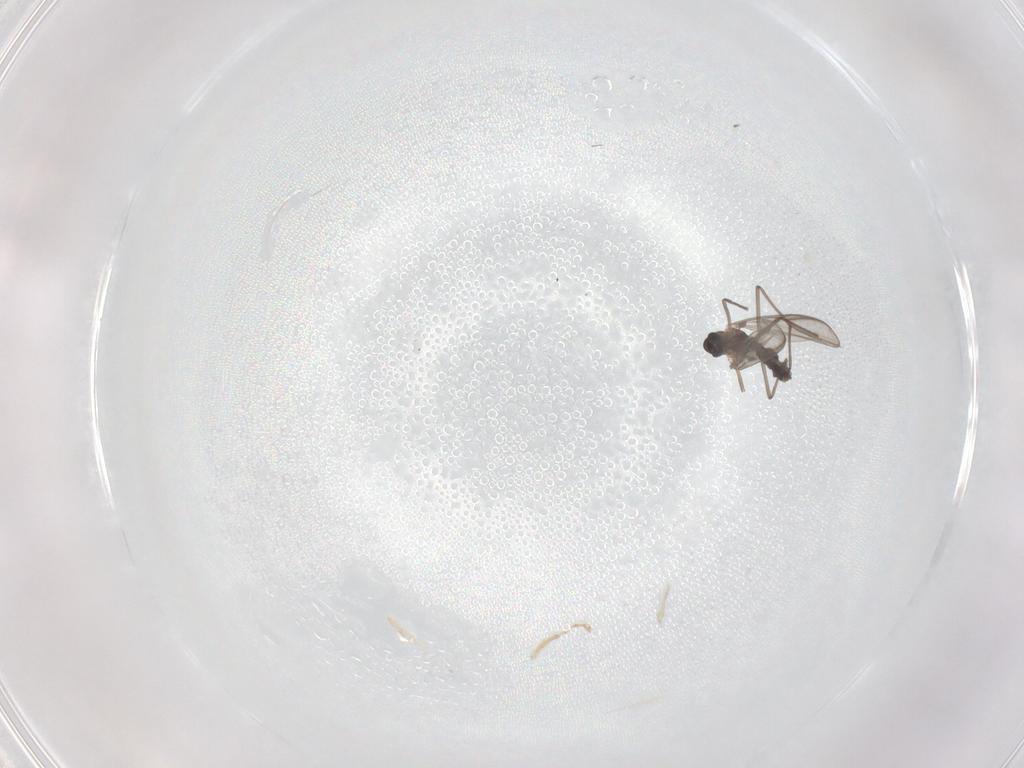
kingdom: Animalia
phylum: Arthropoda
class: Insecta
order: Diptera
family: Chironomidae
